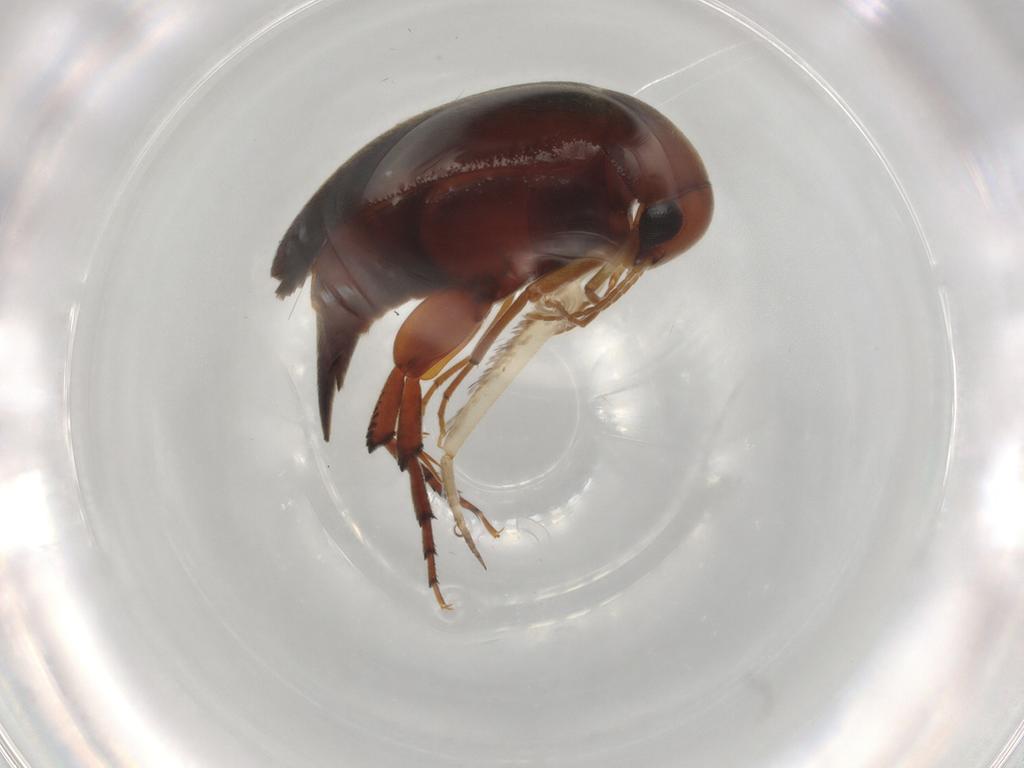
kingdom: Animalia
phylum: Arthropoda
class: Insecta
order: Coleoptera
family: Mordellidae
